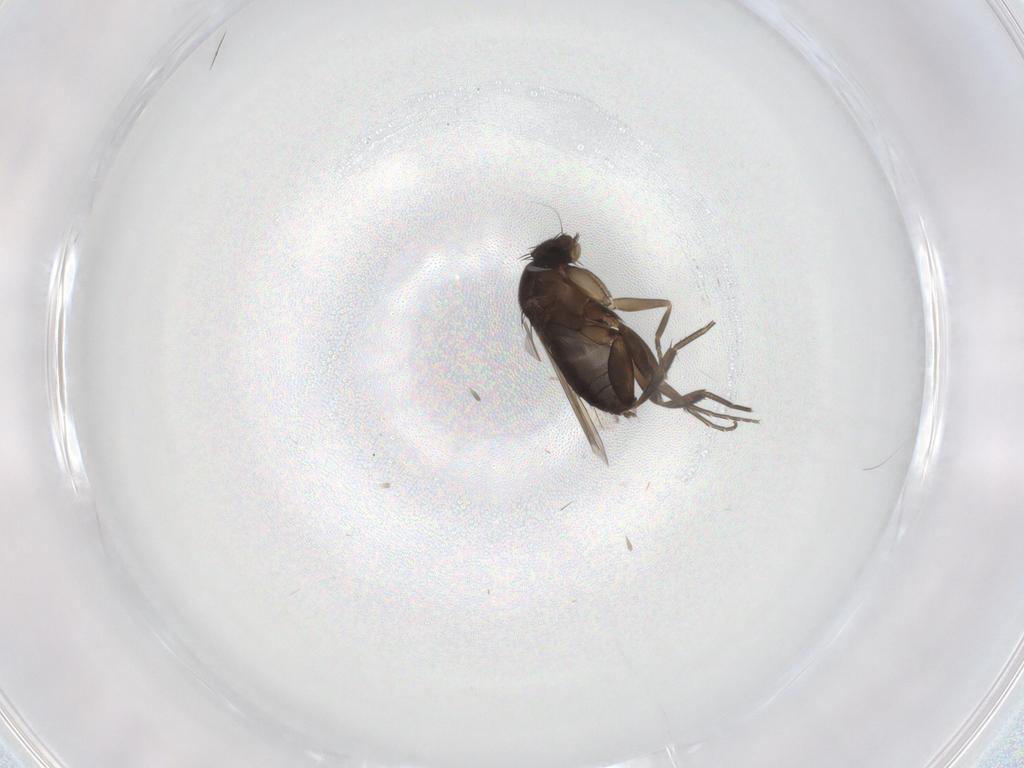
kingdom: Animalia
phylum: Arthropoda
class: Insecta
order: Diptera
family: Phoridae
